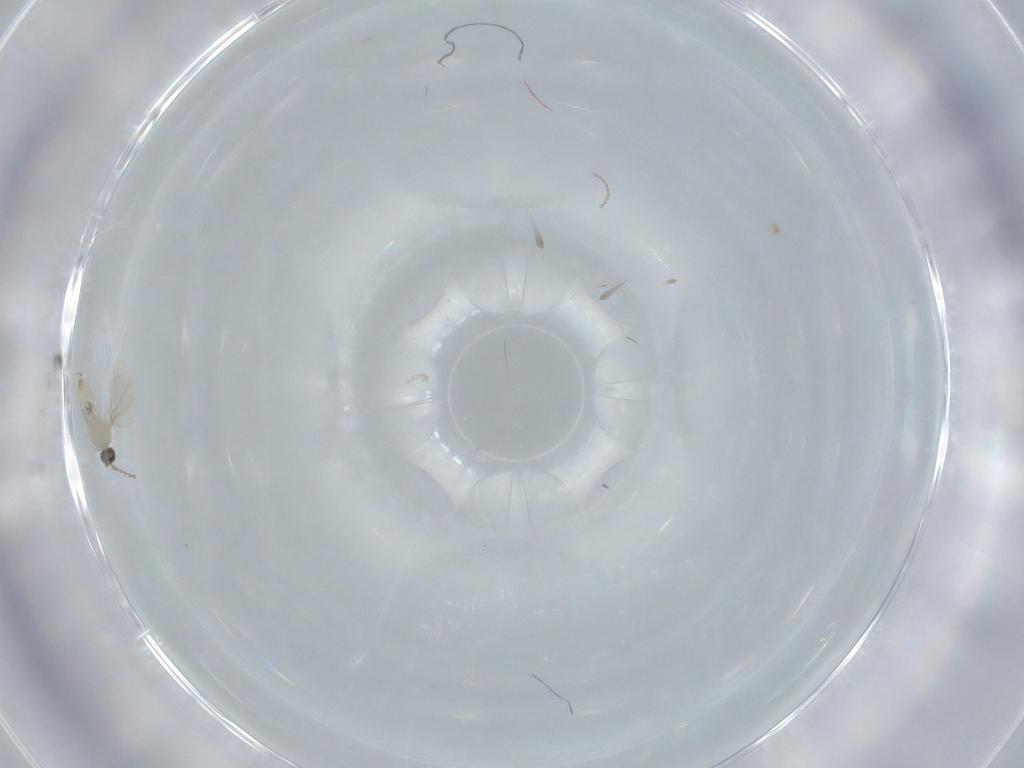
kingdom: Animalia
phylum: Arthropoda
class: Insecta
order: Diptera
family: Cecidomyiidae
